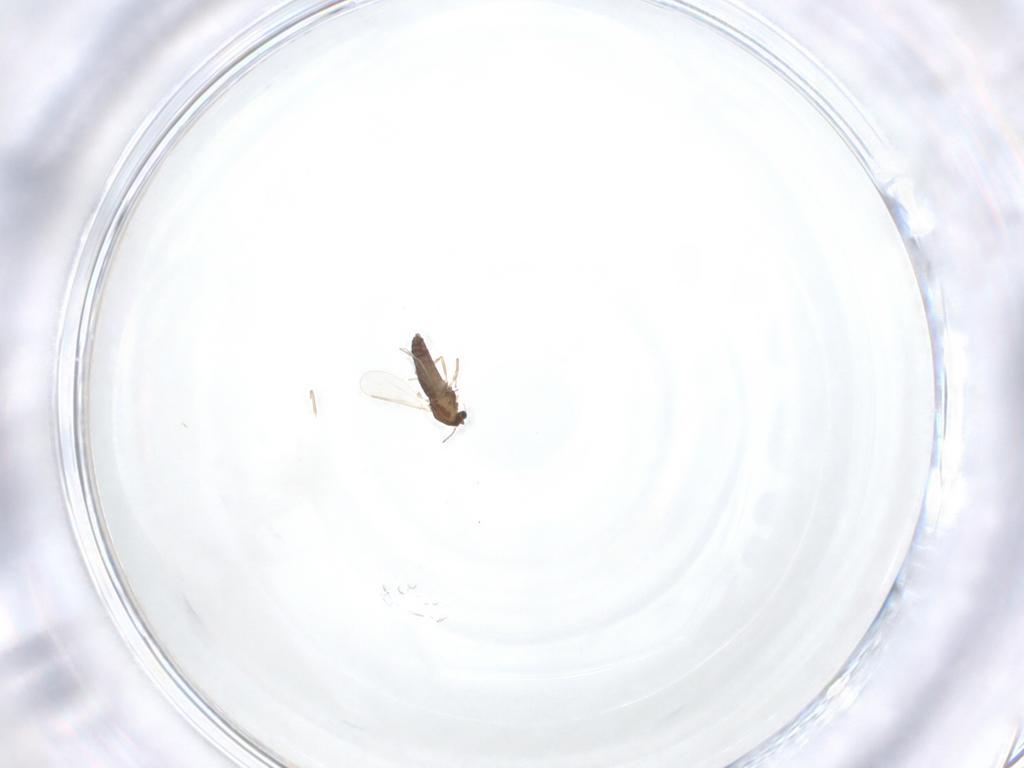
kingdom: Animalia
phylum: Arthropoda
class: Insecta
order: Diptera
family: Chironomidae
